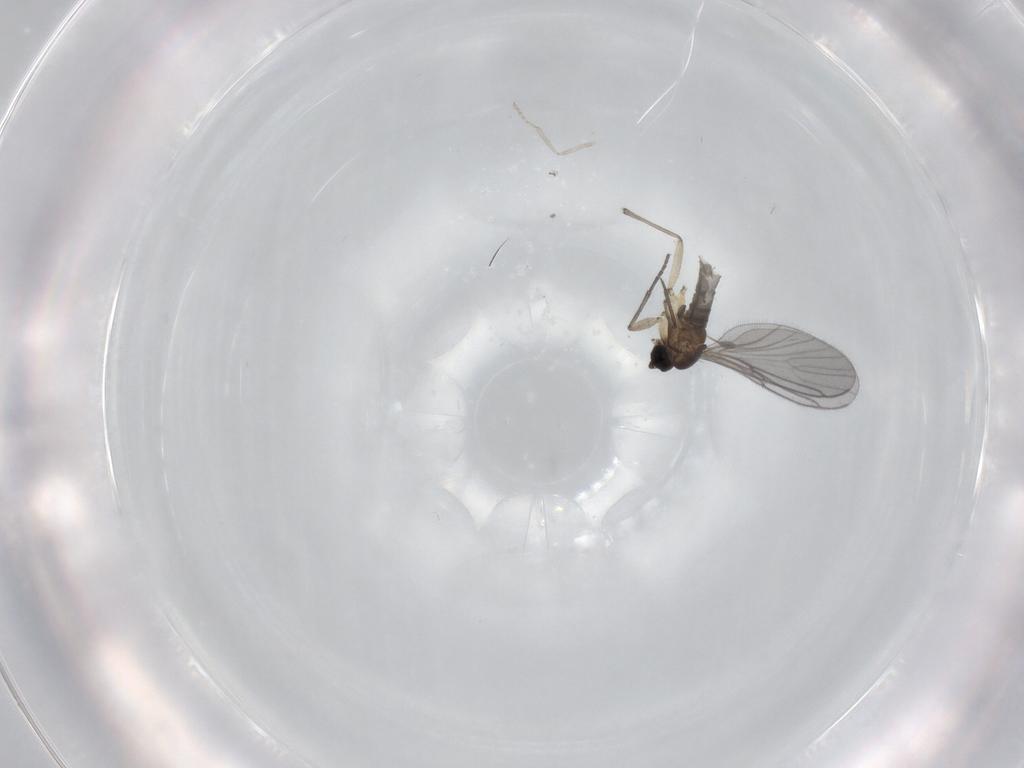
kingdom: Animalia
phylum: Arthropoda
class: Insecta
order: Diptera
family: Sciaridae
